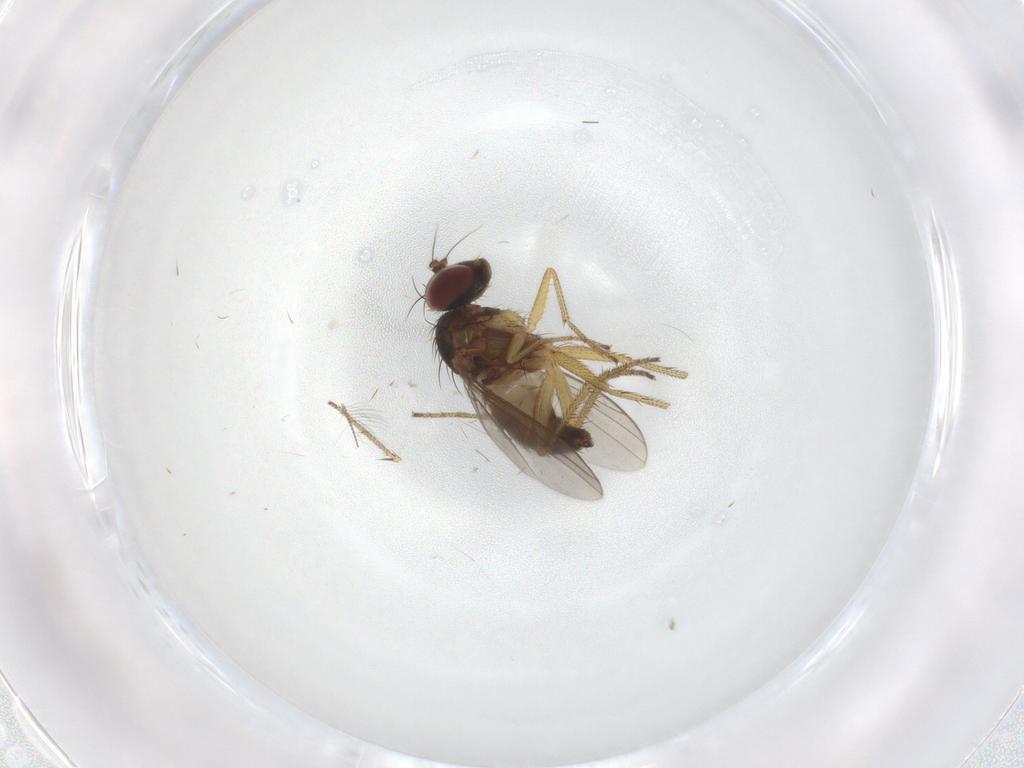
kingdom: Animalia
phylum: Arthropoda
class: Insecta
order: Diptera
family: Dolichopodidae
